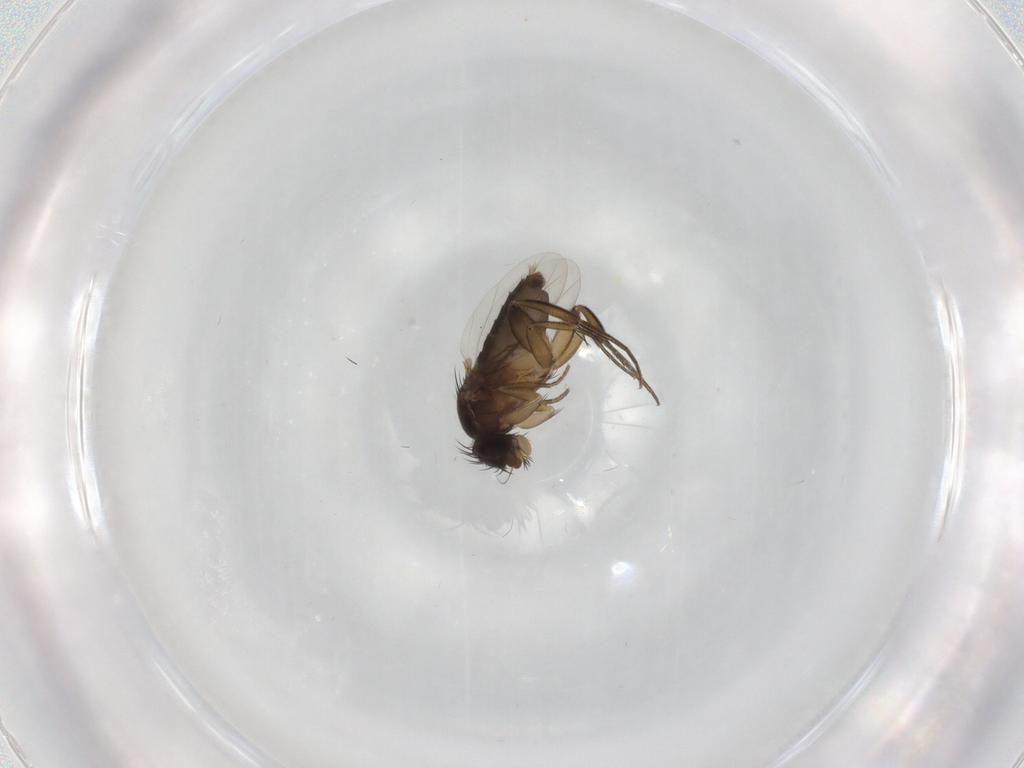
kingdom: Animalia
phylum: Arthropoda
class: Insecta
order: Diptera
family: Phoridae
